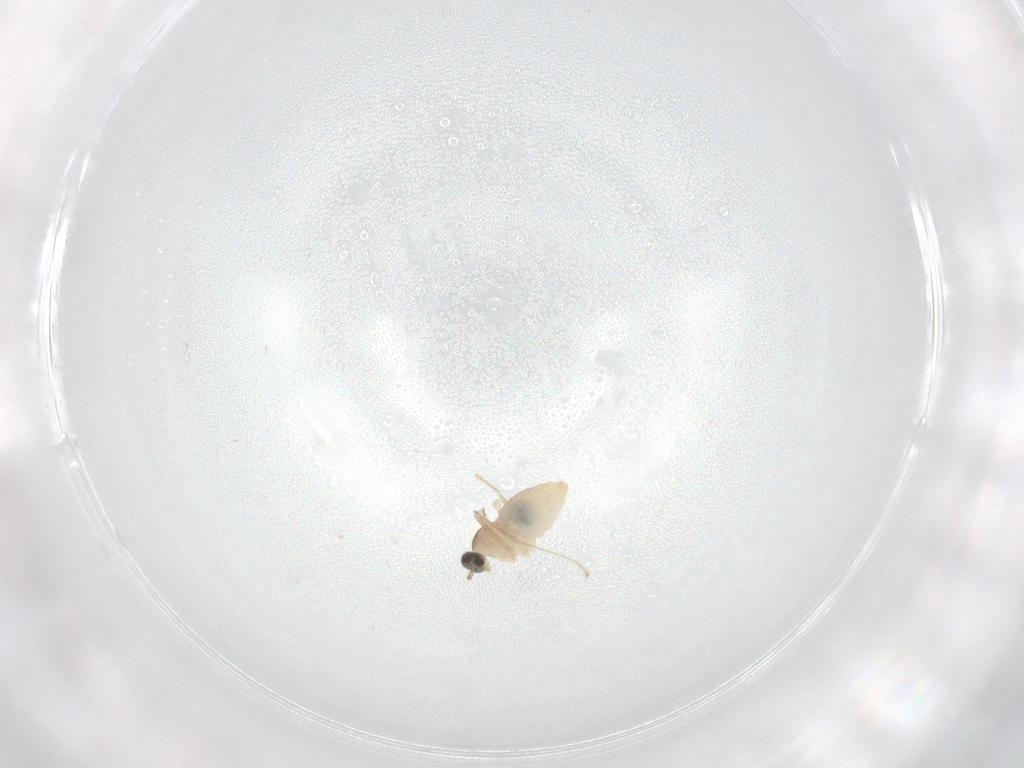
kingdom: Animalia
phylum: Arthropoda
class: Insecta
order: Diptera
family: Cecidomyiidae
